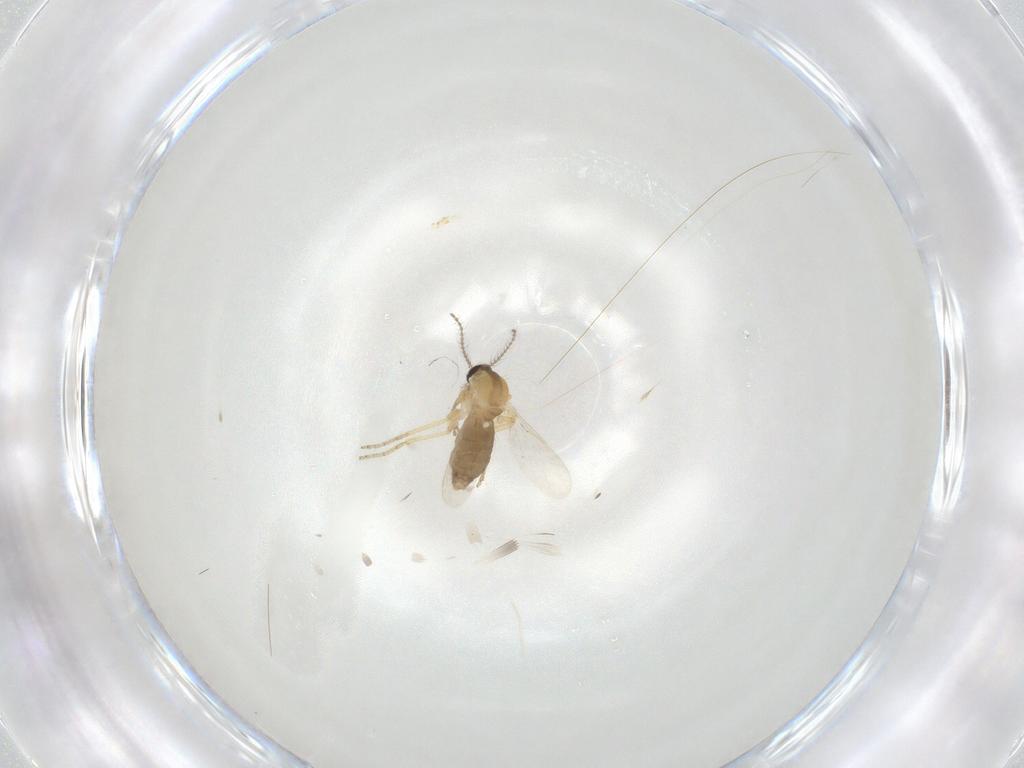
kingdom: Animalia
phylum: Arthropoda
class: Insecta
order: Diptera
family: Ceratopogonidae
